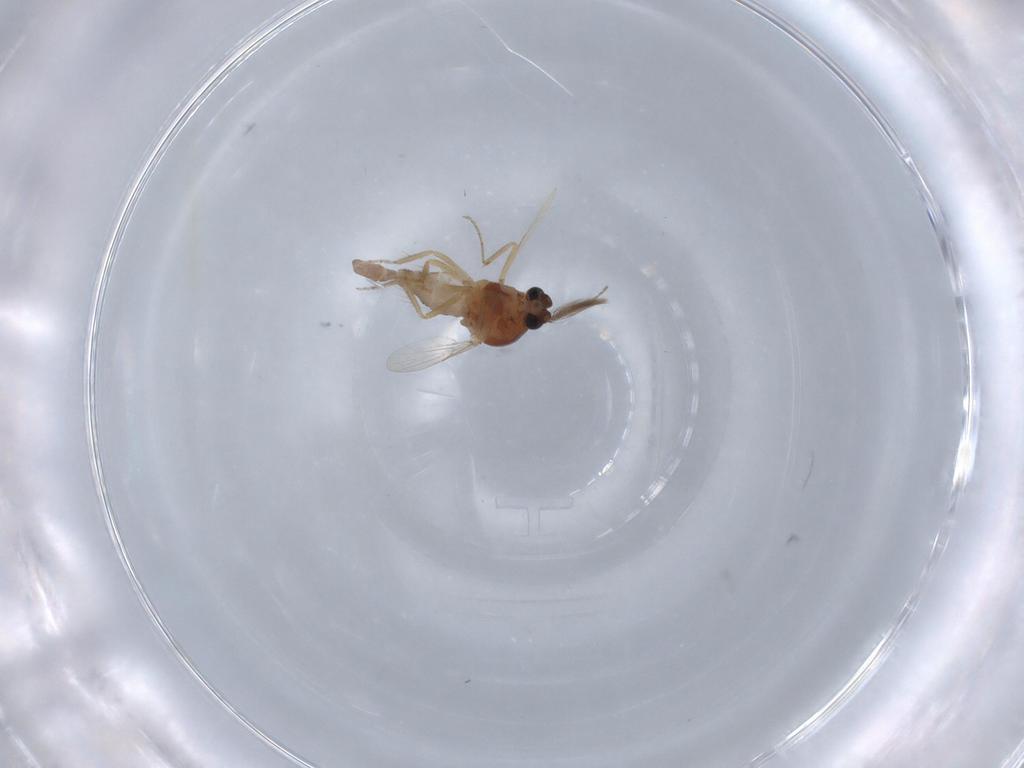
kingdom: Animalia
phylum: Arthropoda
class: Insecta
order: Diptera
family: Ceratopogonidae
